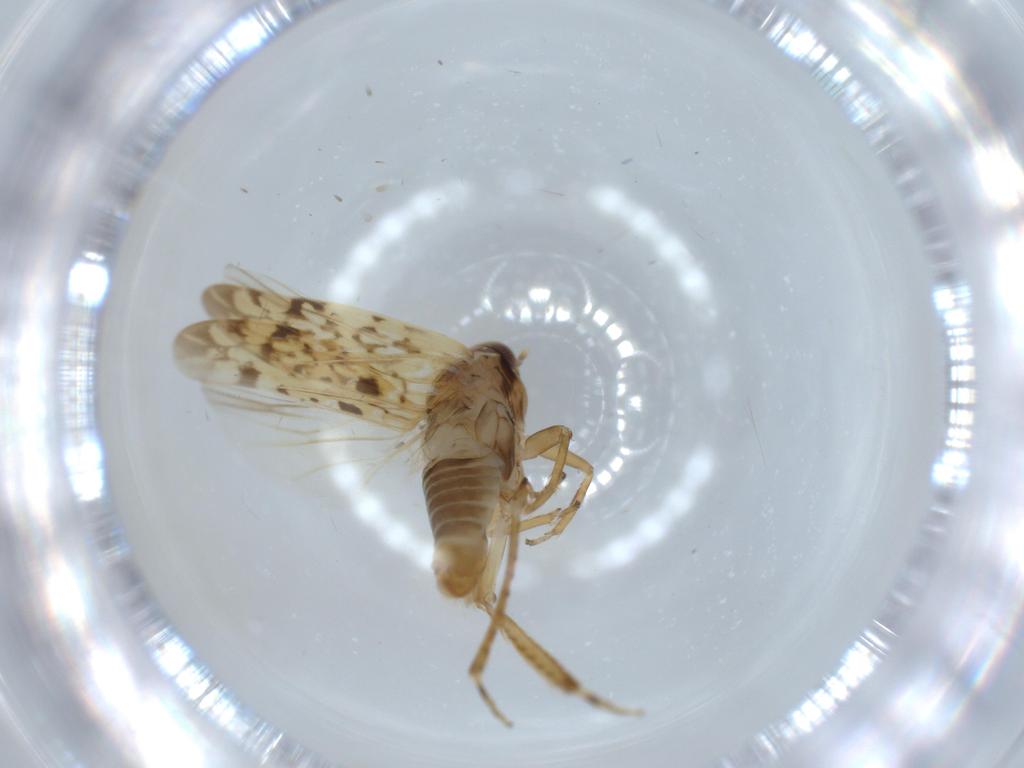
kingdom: Animalia
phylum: Arthropoda
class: Insecta
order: Hemiptera
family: Cicadellidae
